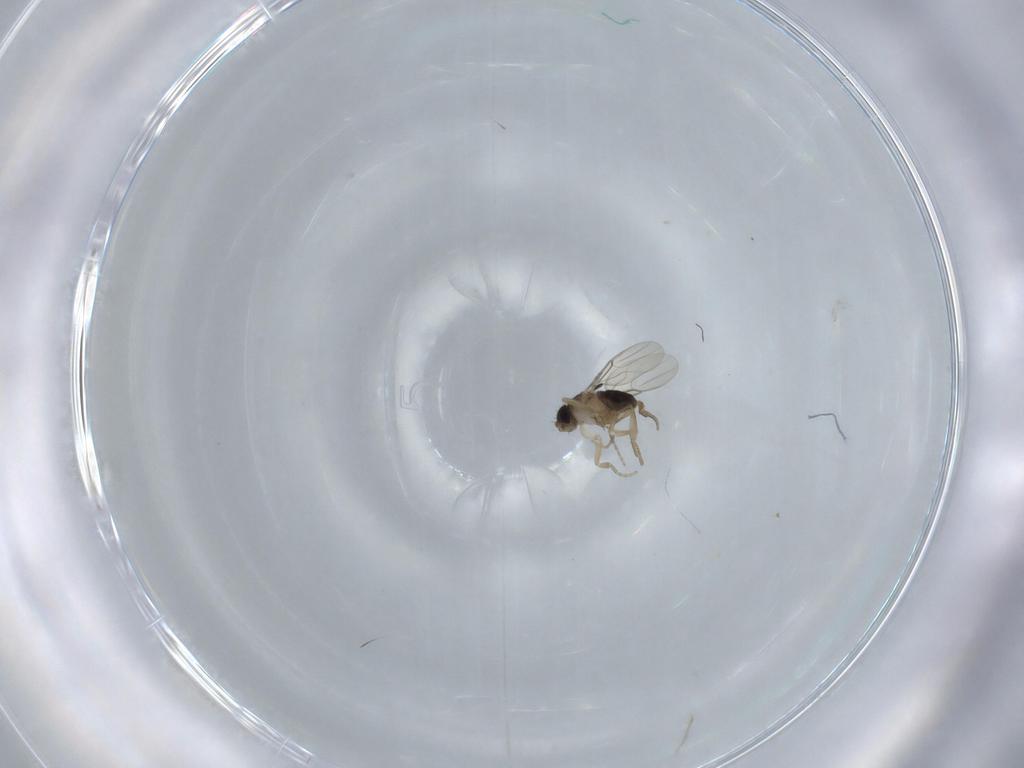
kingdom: Animalia
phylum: Arthropoda
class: Insecta
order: Diptera
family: Phoridae
